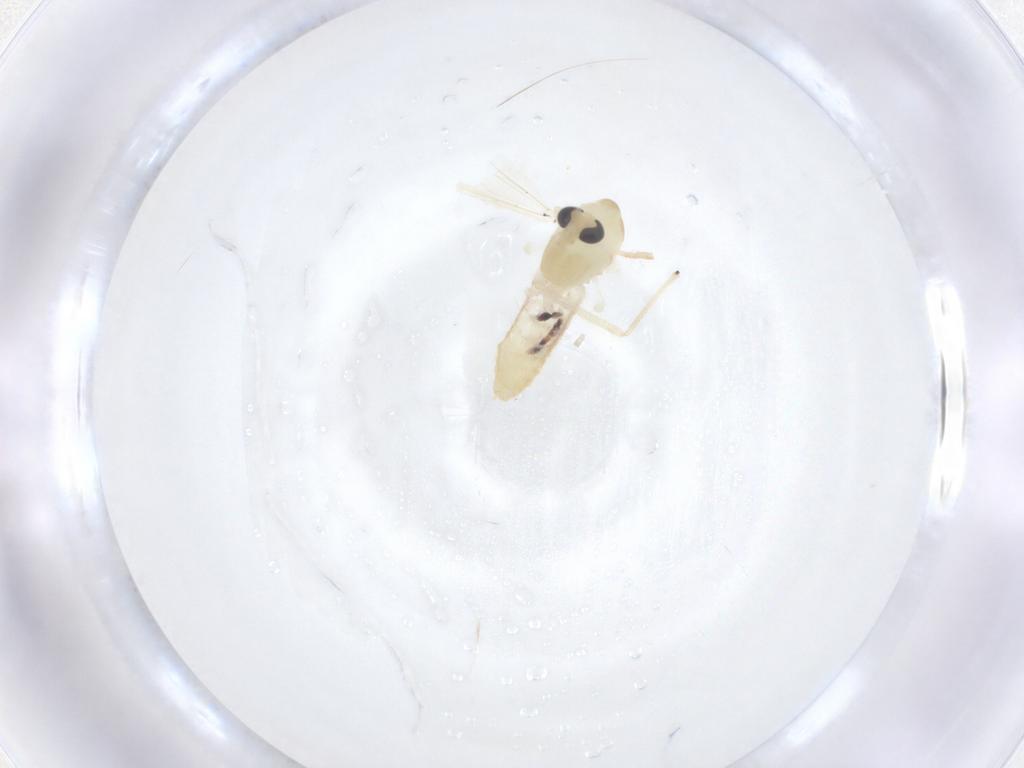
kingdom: Animalia
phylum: Arthropoda
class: Insecta
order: Diptera
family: Chironomidae
